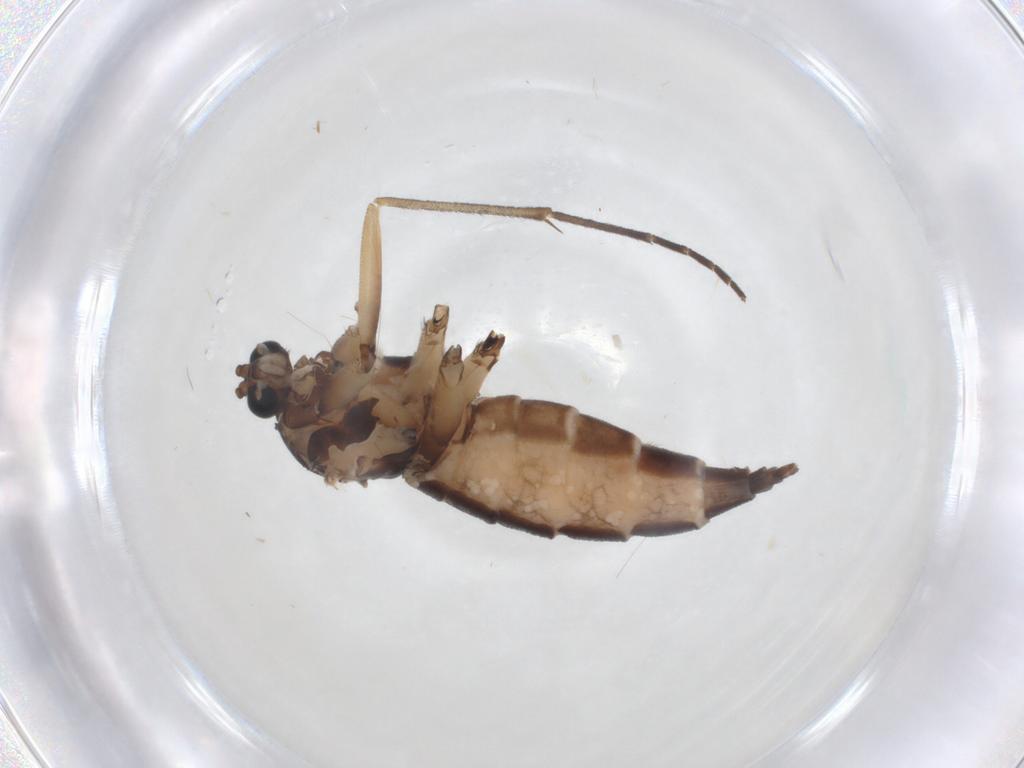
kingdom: Animalia
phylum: Arthropoda
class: Insecta
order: Diptera
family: Sciaridae
